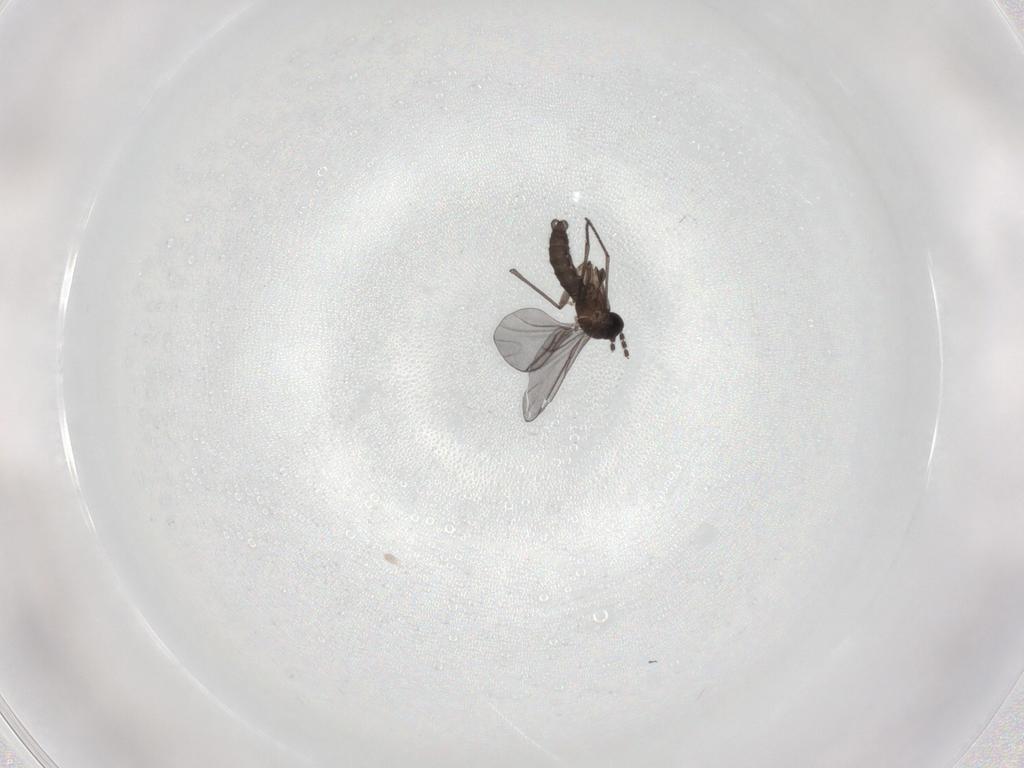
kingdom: Animalia
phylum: Arthropoda
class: Insecta
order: Diptera
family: Sciaridae
